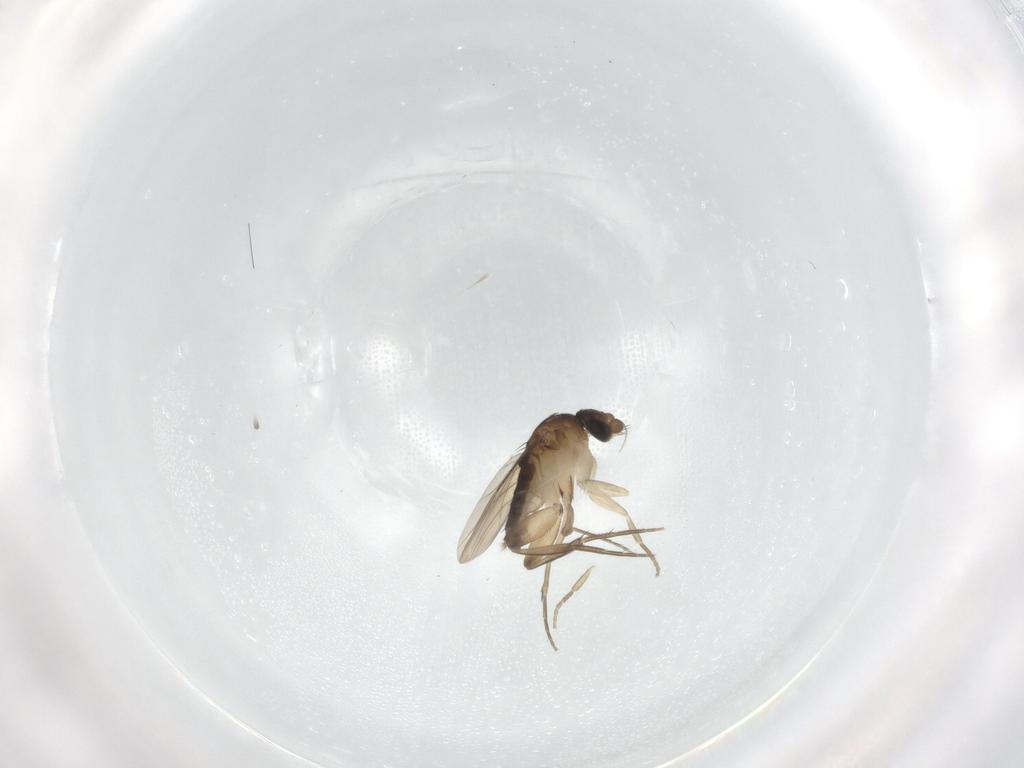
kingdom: Animalia
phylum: Arthropoda
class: Insecta
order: Diptera
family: Phoridae
